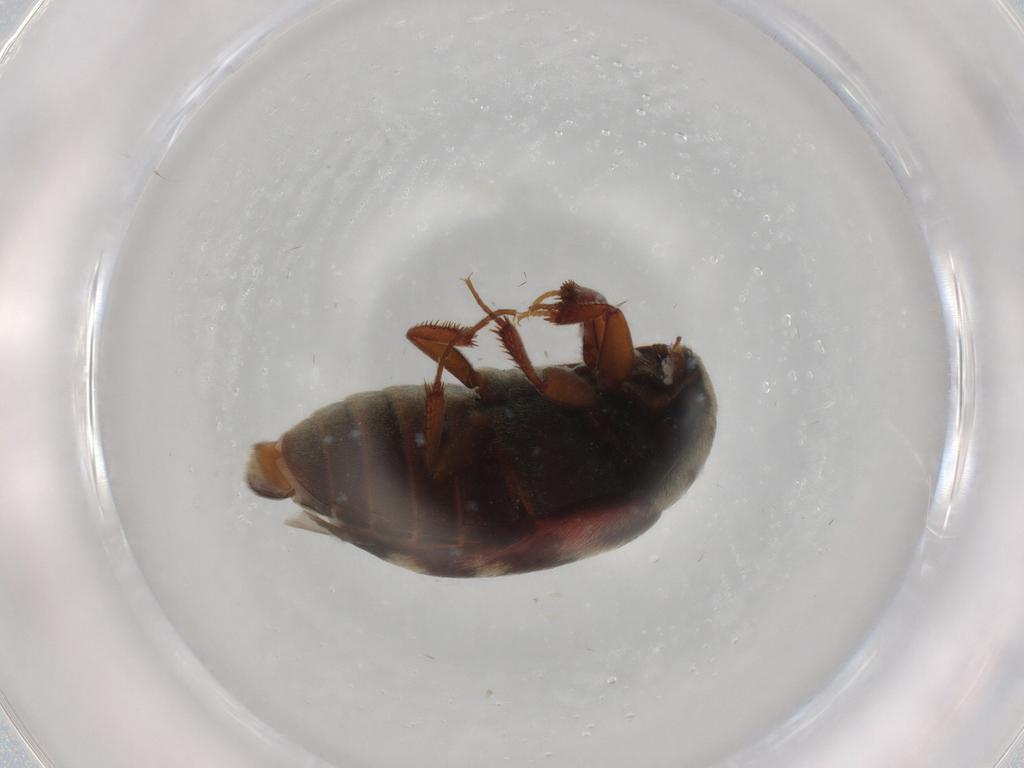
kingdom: Animalia
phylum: Arthropoda
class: Insecta
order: Coleoptera
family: Dermestidae
